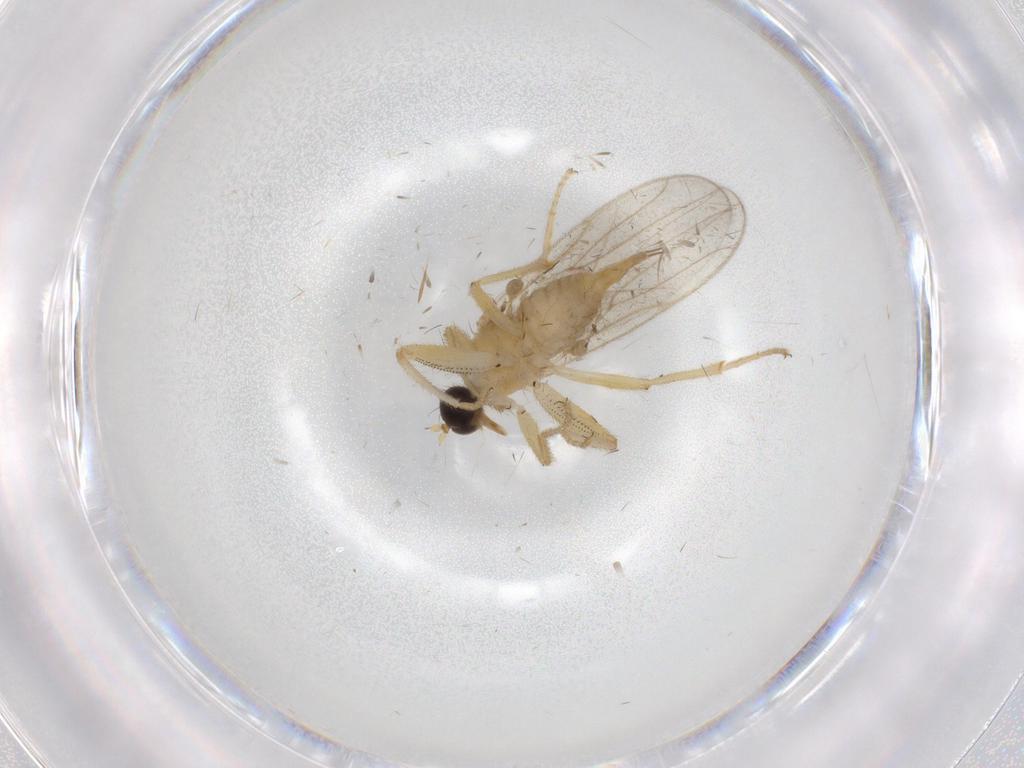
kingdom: Animalia
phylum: Arthropoda
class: Insecta
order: Diptera
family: Hybotidae
